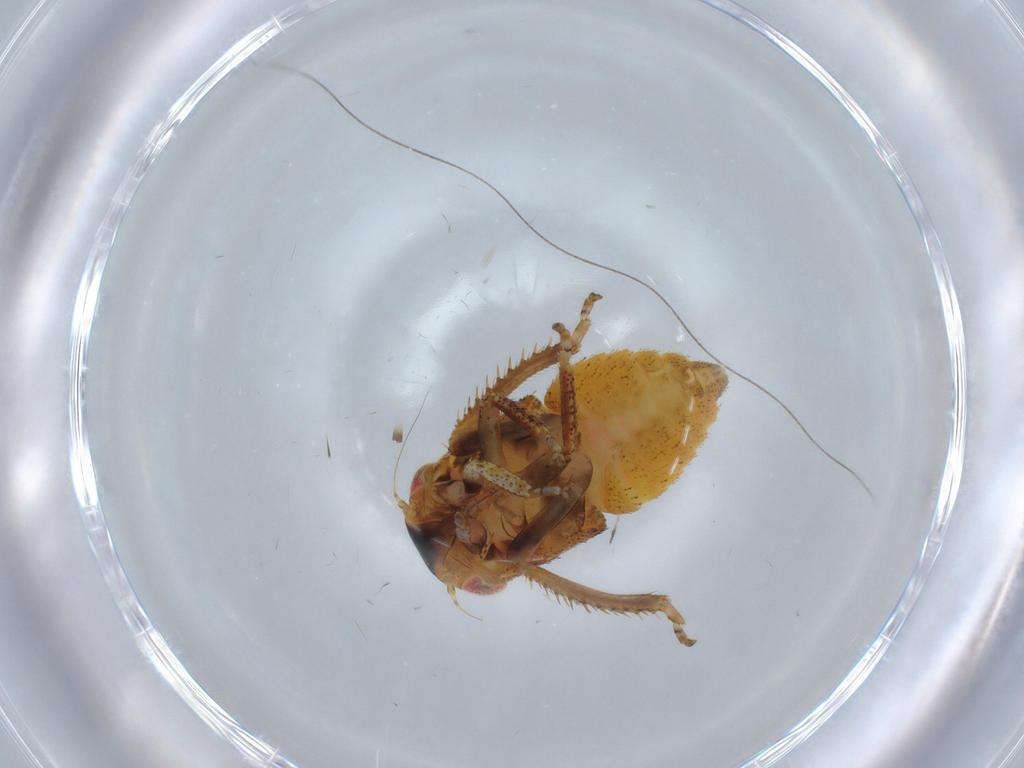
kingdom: Animalia
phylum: Arthropoda
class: Insecta
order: Hemiptera
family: Cicadellidae
